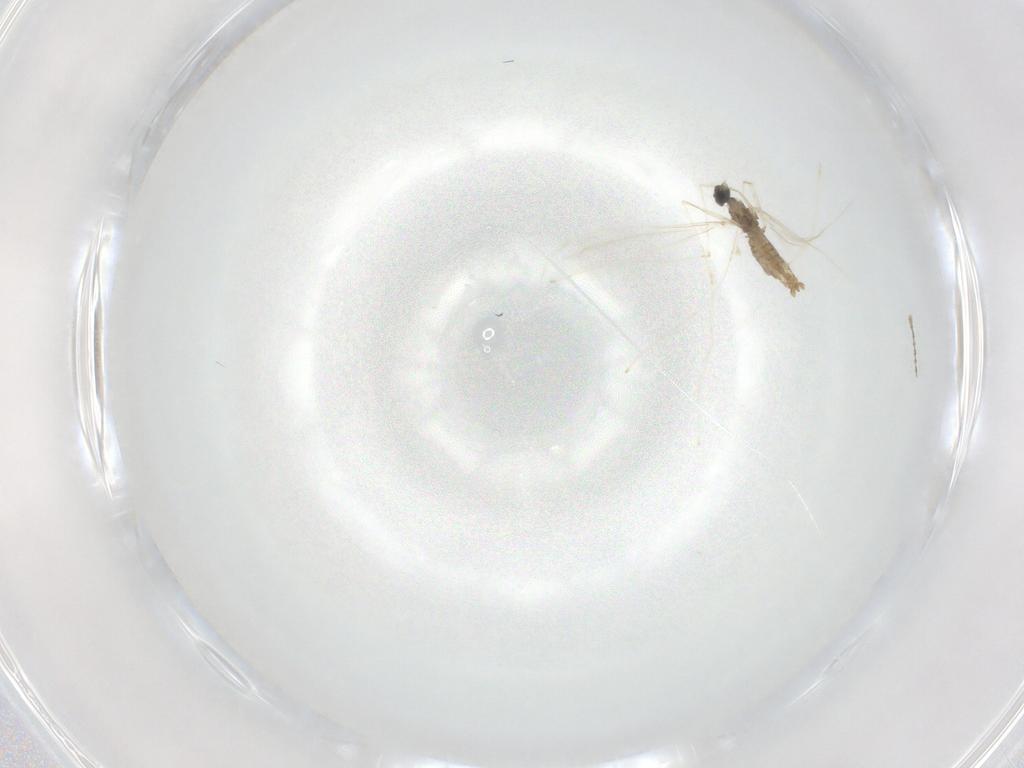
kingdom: Animalia
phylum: Arthropoda
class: Insecta
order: Diptera
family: Cecidomyiidae
